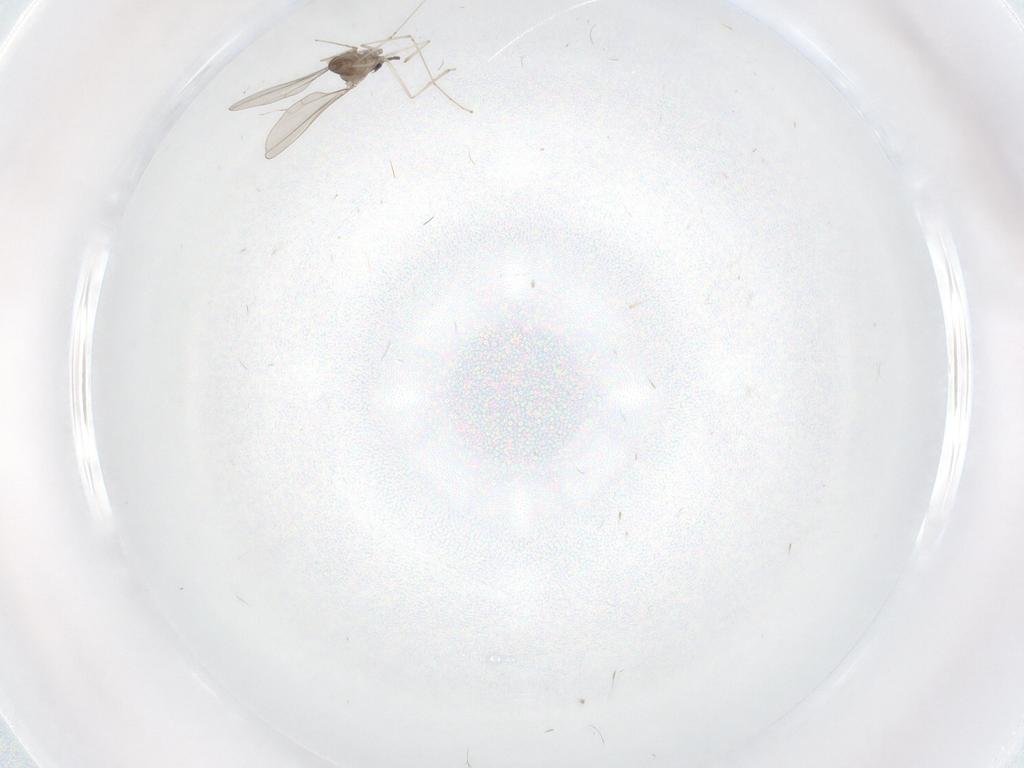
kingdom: Animalia
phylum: Arthropoda
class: Insecta
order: Diptera
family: Cecidomyiidae
